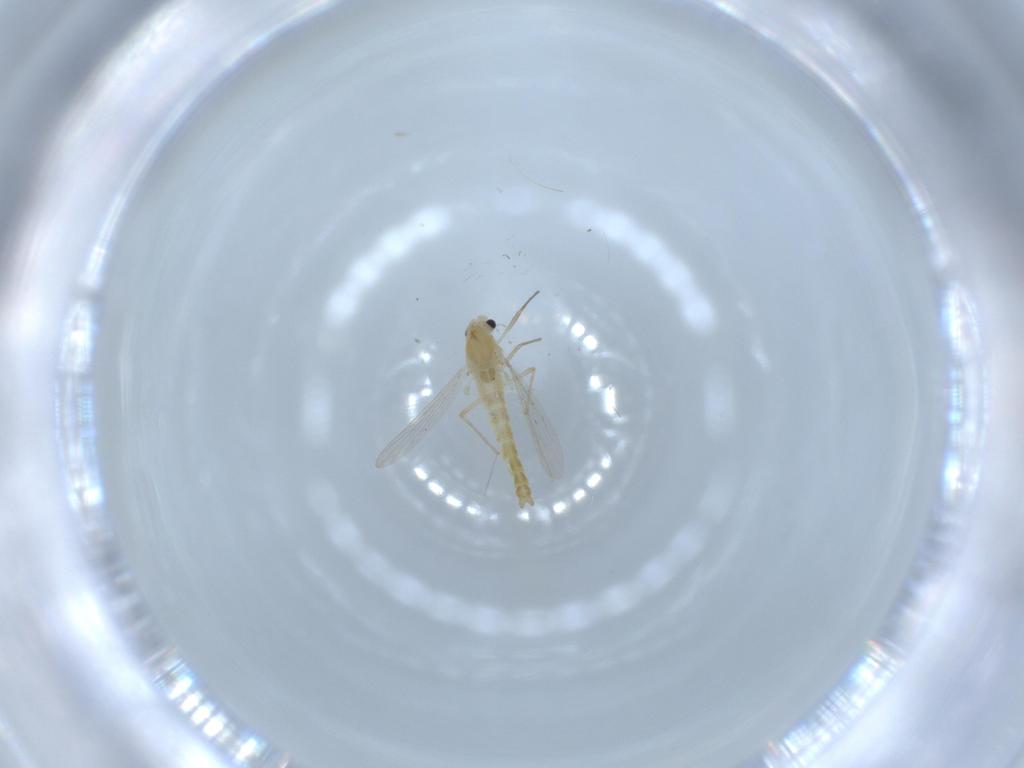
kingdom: Animalia
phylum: Arthropoda
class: Insecta
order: Diptera
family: Chironomidae
